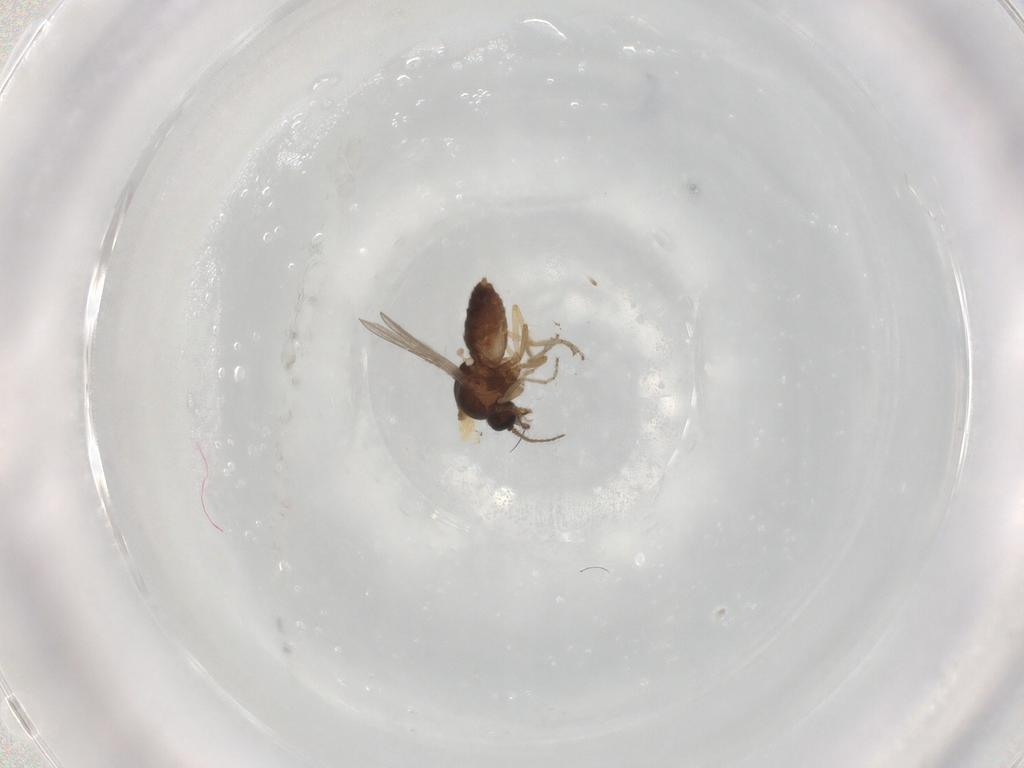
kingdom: Animalia
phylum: Arthropoda
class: Insecta
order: Diptera
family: Ceratopogonidae
